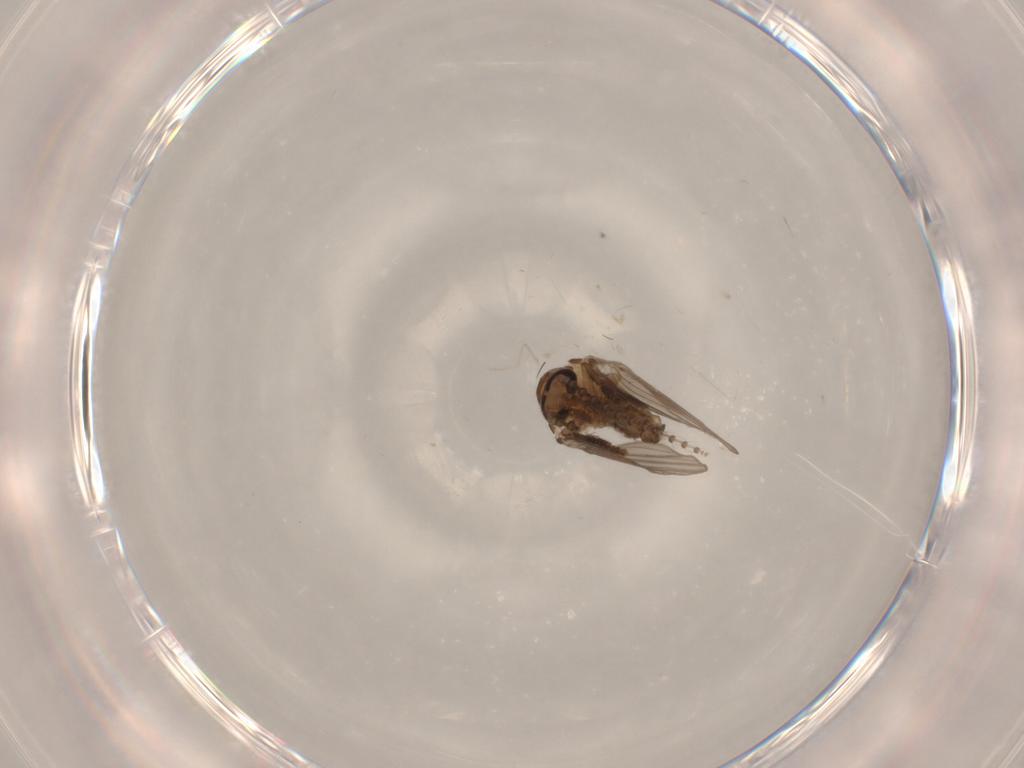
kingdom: Animalia
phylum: Arthropoda
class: Insecta
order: Diptera
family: Psychodidae
